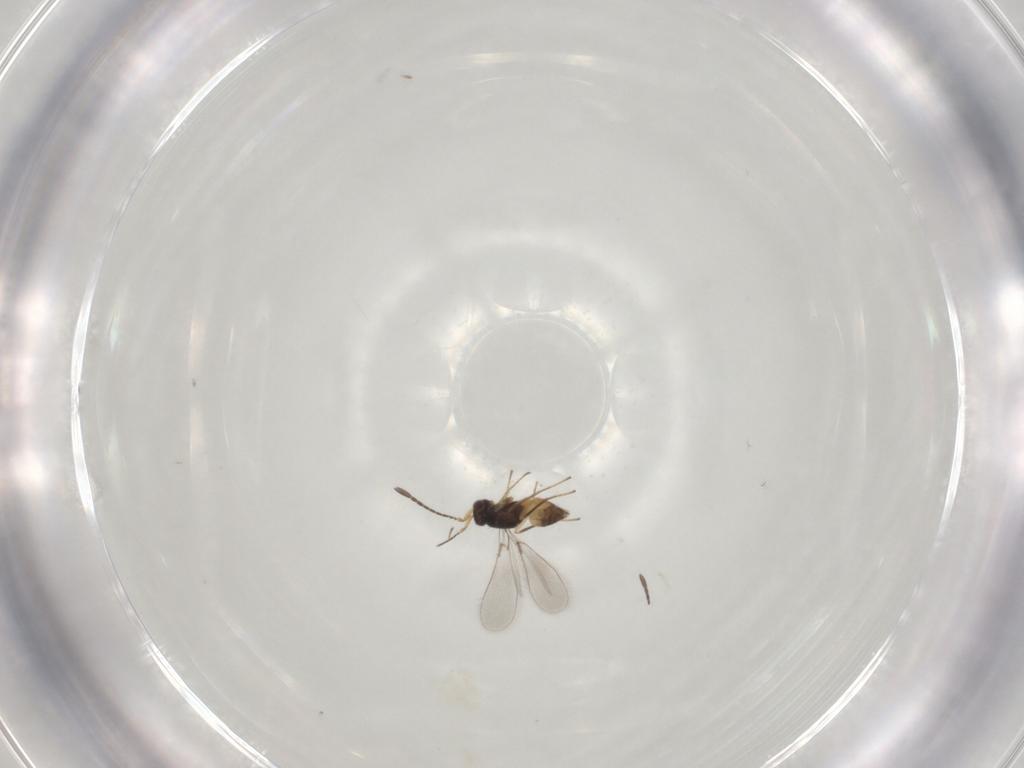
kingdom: Animalia
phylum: Arthropoda
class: Insecta
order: Hymenoptera
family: Mymaridae
